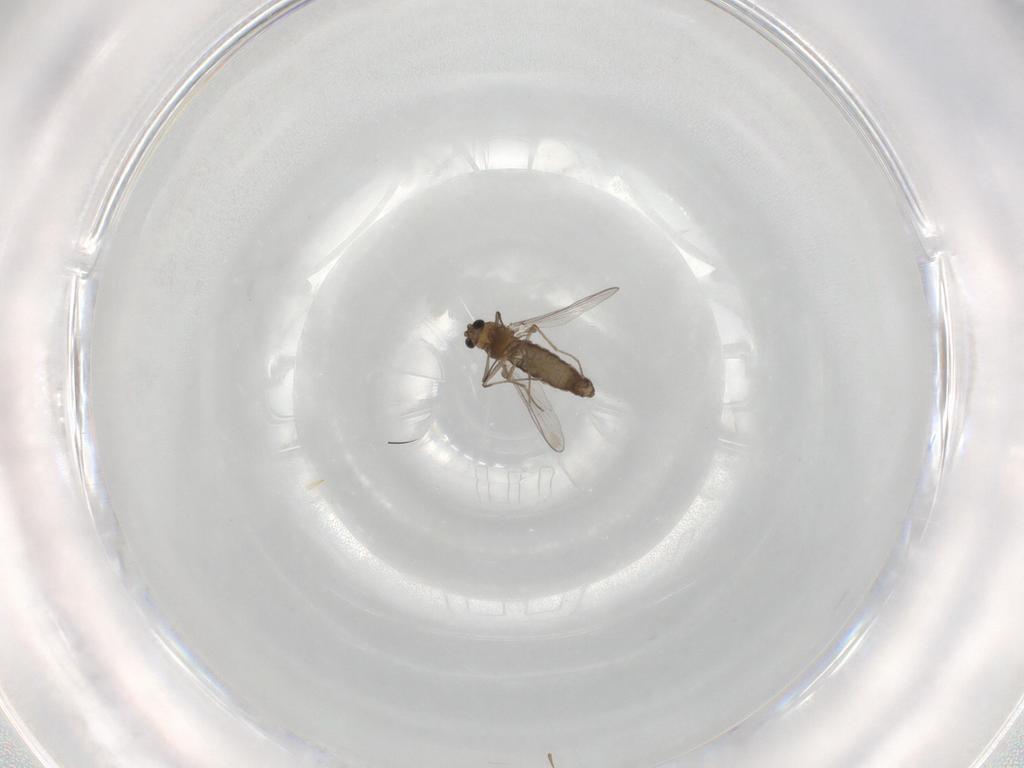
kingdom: Animalia
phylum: Arthropoda
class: Insecta
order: Diptera
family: Chironomidae
